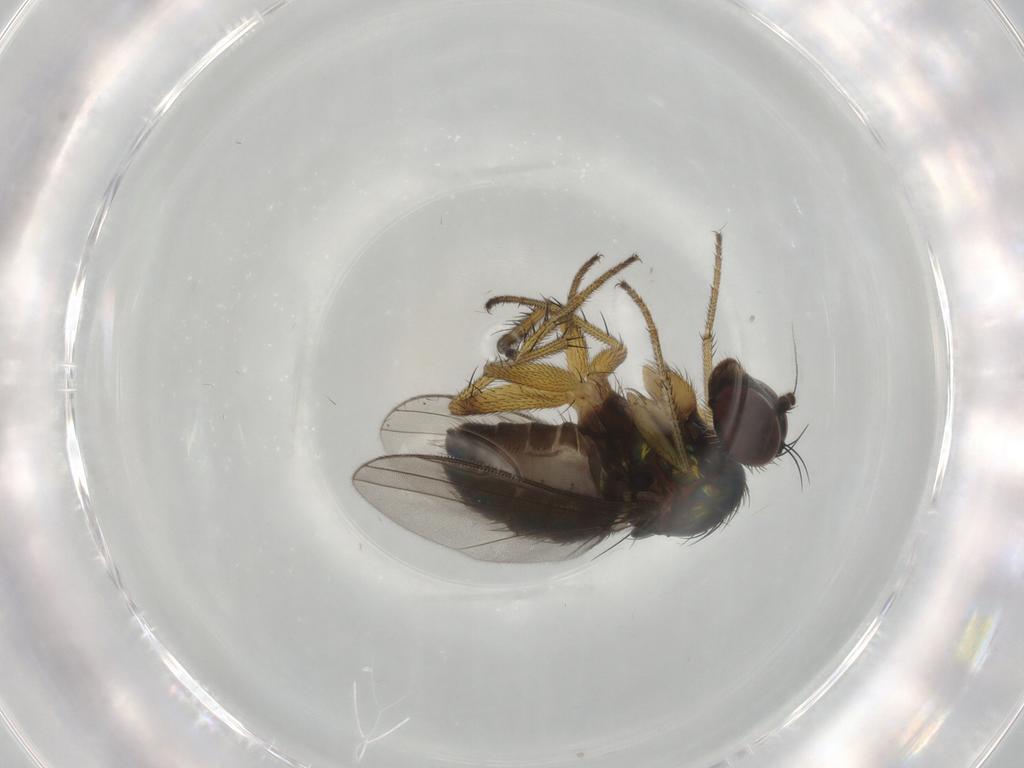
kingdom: Animalia
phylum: Arthropoda
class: Insecta
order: Diptera
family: Dolichopodidae
